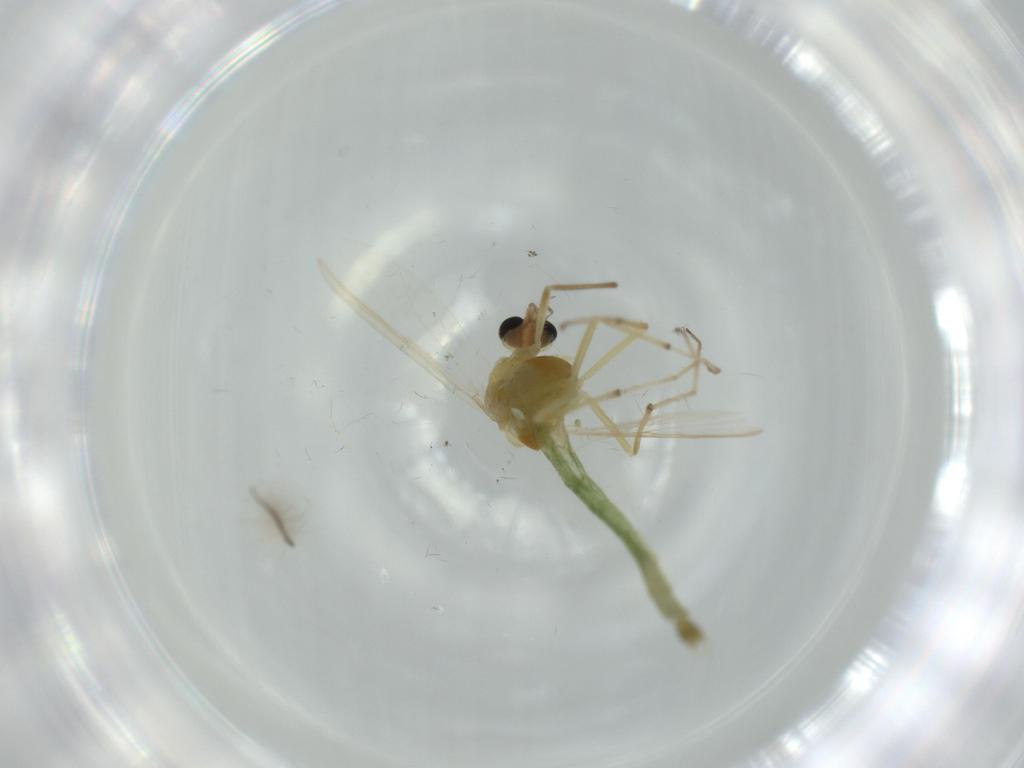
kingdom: Animalia
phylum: Arthropoda
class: Insecta
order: Diptera
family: Chironomidae
